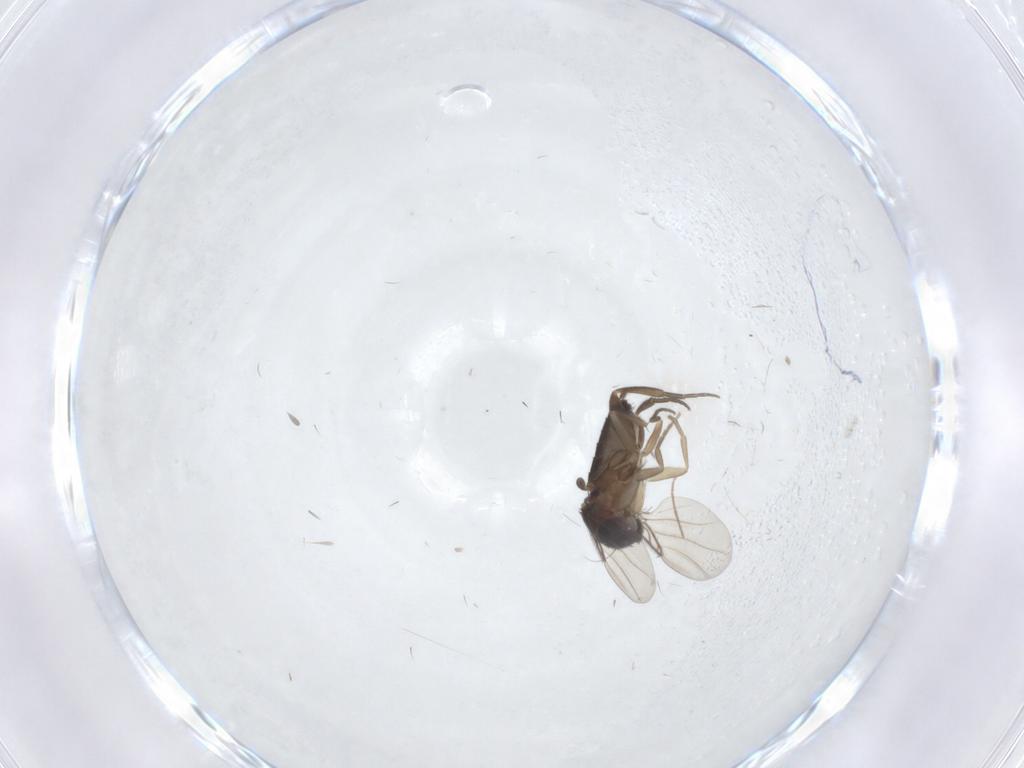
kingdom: Animalia
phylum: Arthropoda
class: Insecta
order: Diptera
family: Phoridae
